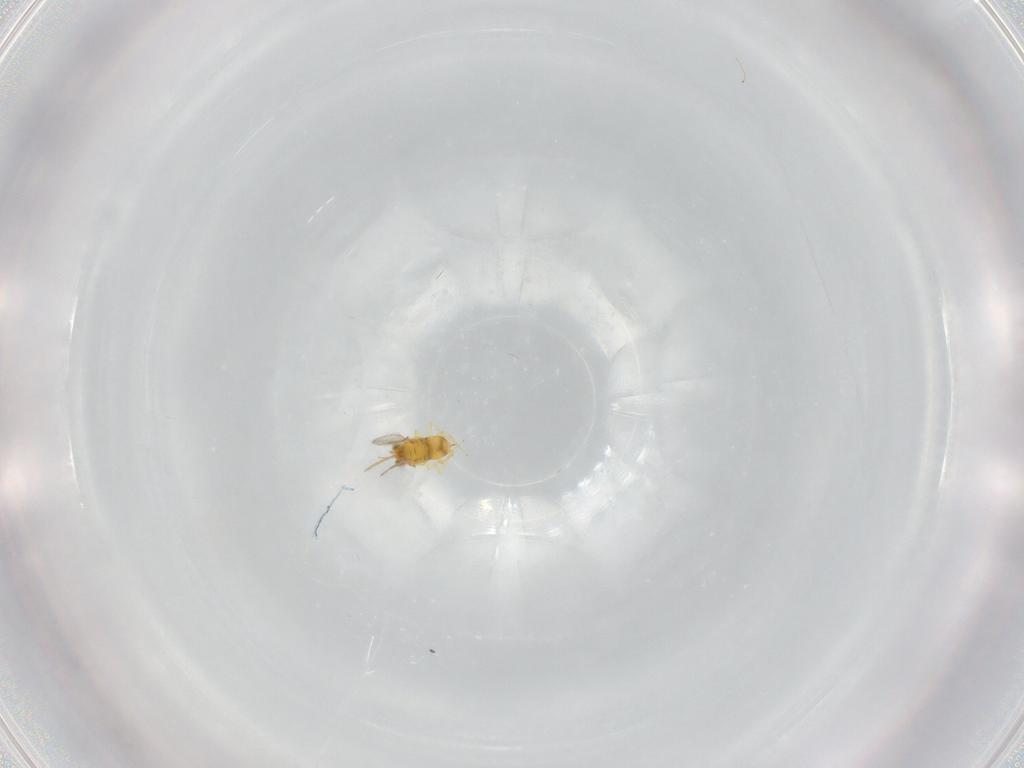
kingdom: Animalia
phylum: Arthropoda
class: Insecta
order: Hymenoptera
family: Aphelinidae
